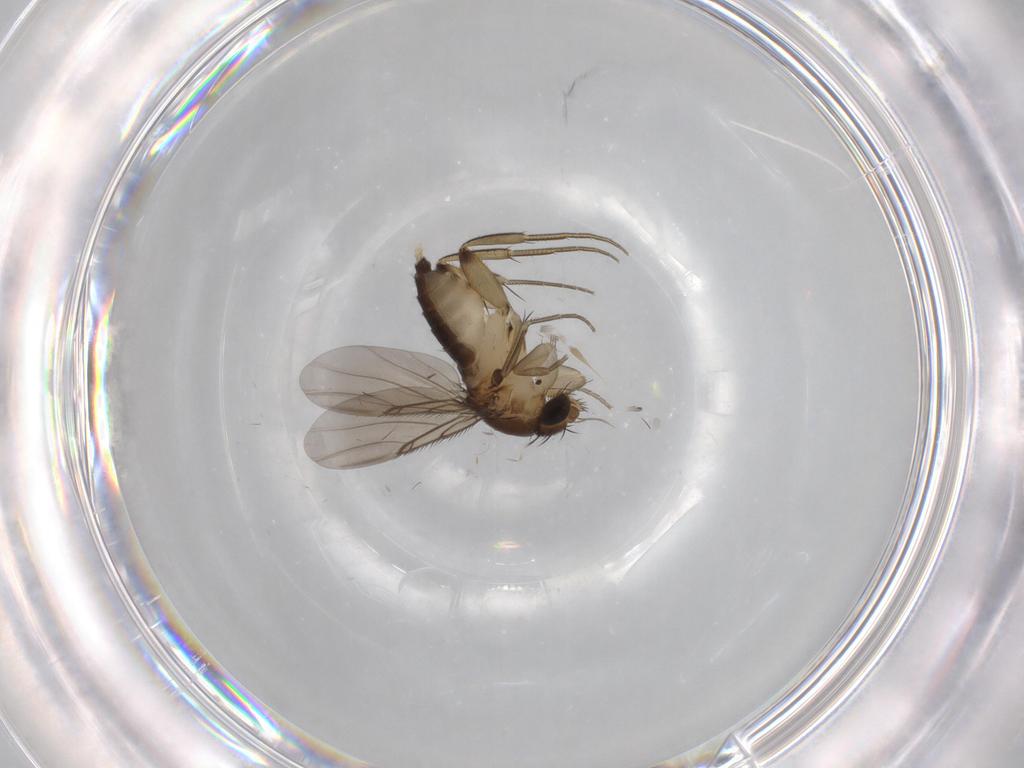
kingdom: Animalia
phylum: Arthropoda
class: Insecta
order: Diptera
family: Phoridae
